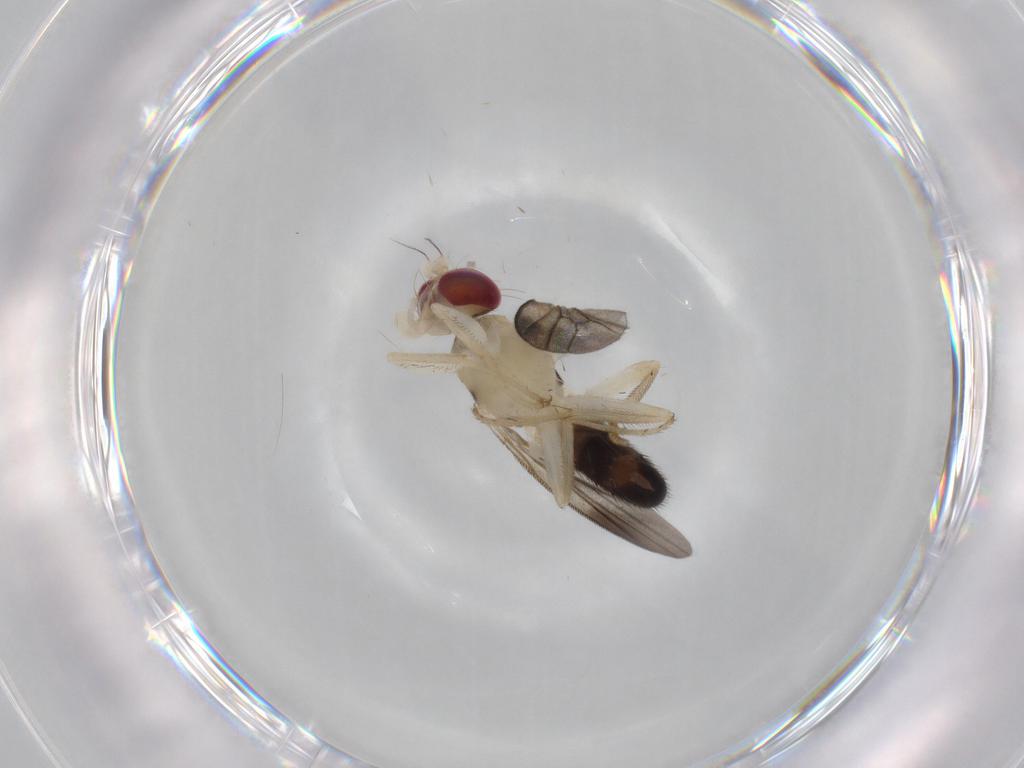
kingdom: Animalia
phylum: Arthropoda
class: Insecta
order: Diptera
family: Clusiidae
